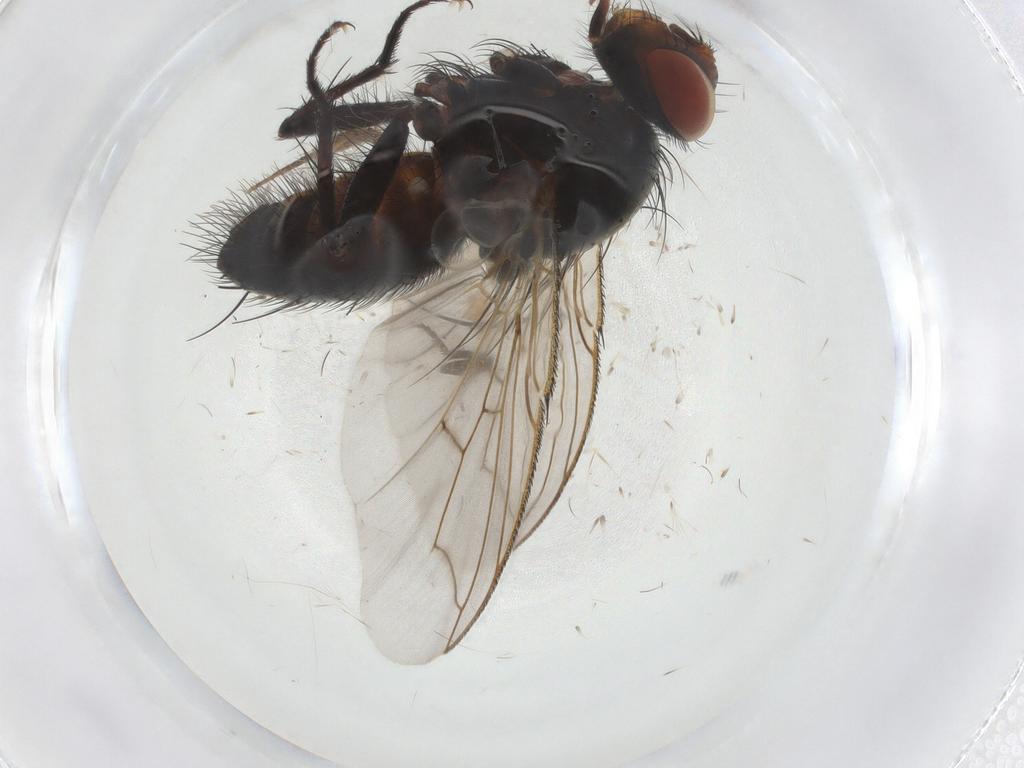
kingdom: Animalia
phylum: Arthropoda
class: Insecta
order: Diptera
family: Milichiidae
